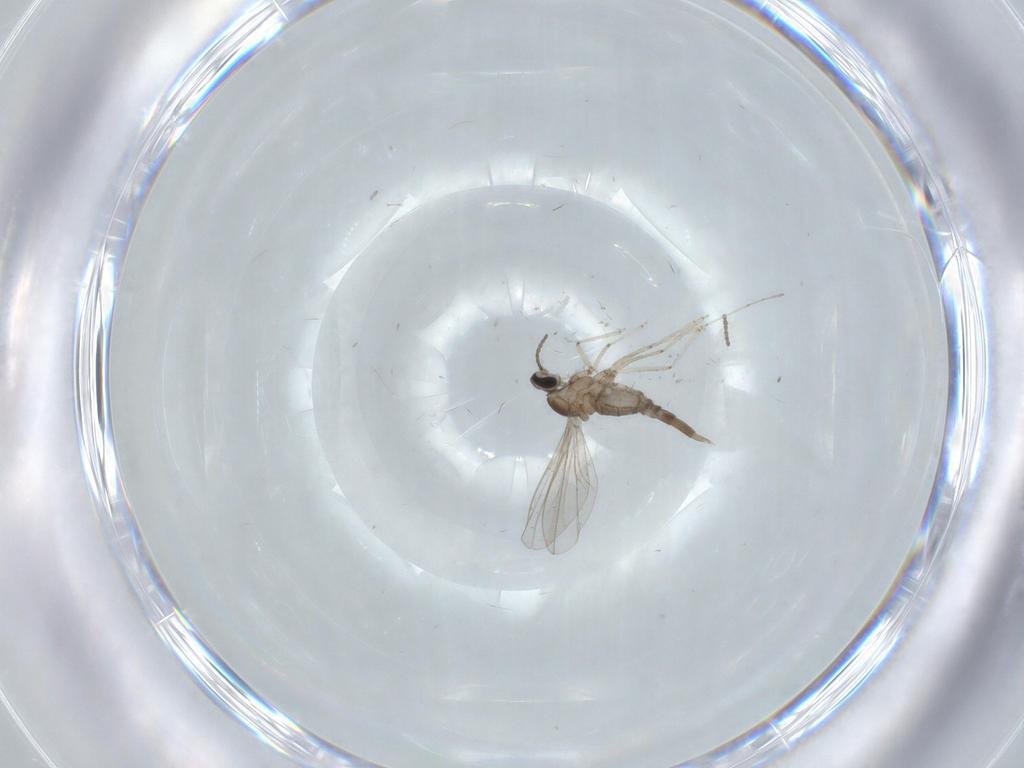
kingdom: Animalia
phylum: Arthropoda
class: Insecta
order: Diptera
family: Cecidomyiidae
